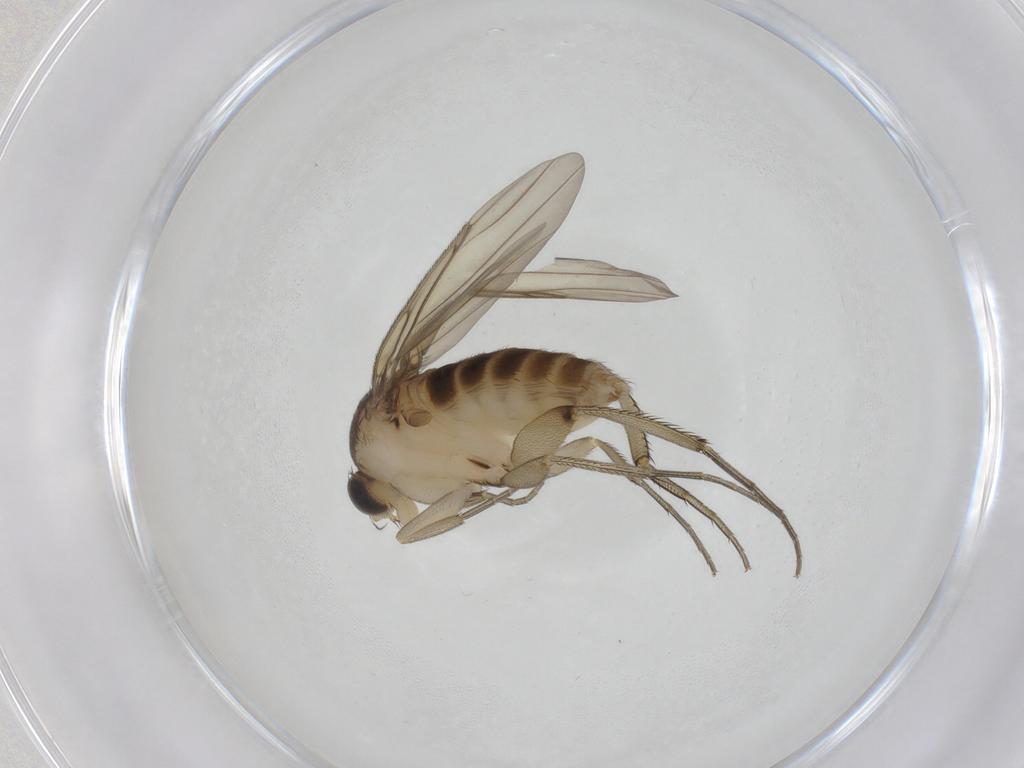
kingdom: Animalia
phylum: Arthropoda
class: Insecta
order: Diptera
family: Phoridae
